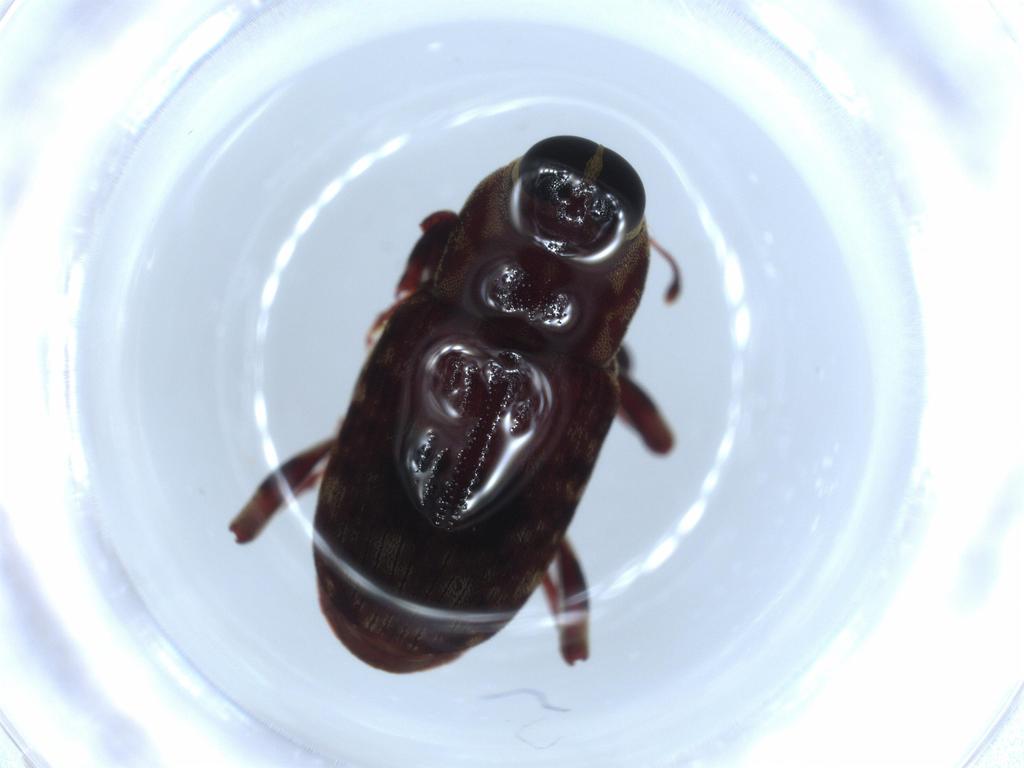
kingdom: Animalia
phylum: Arthropoda
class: Insecta
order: Coleoptera
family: Curculionidae
